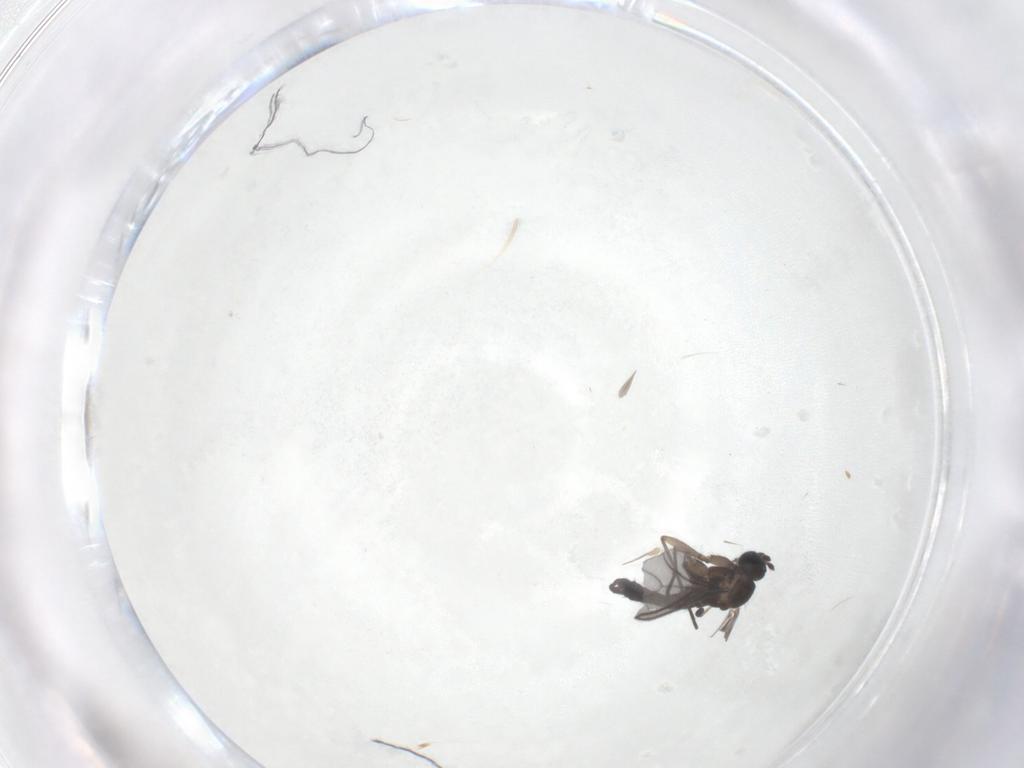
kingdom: Animalia
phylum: Arthropoda
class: Insecta
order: Diptera
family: Sciaridae
